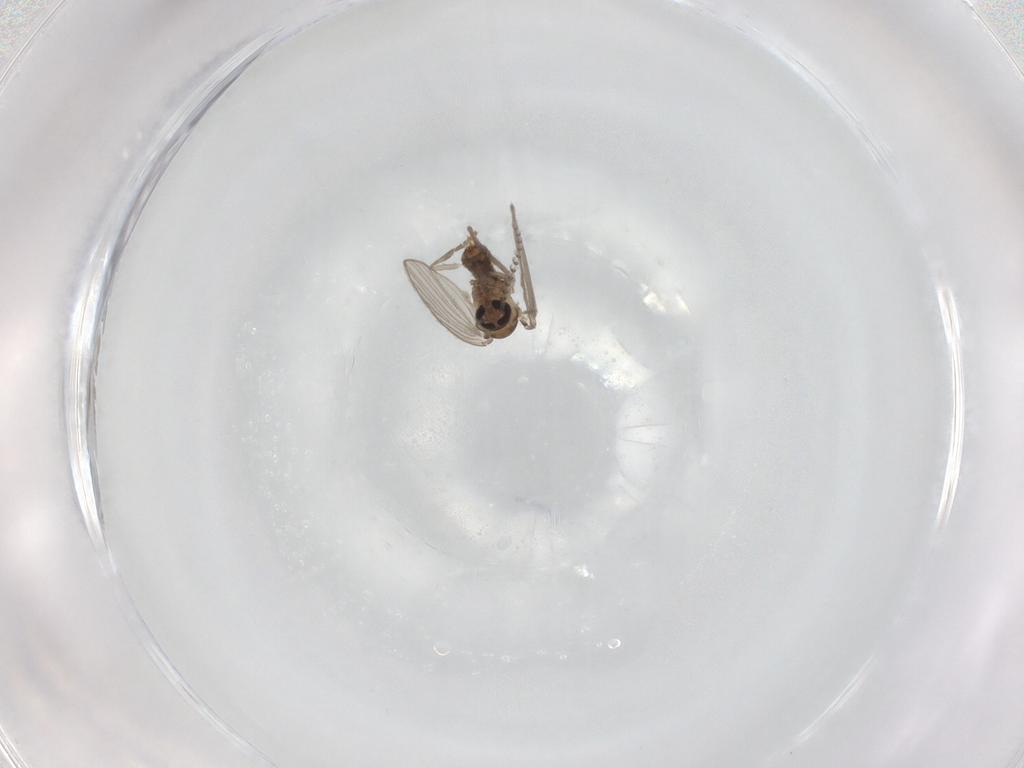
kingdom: Animalia
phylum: Arthropoda
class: Insecta
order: Diptera
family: Psychodidae
